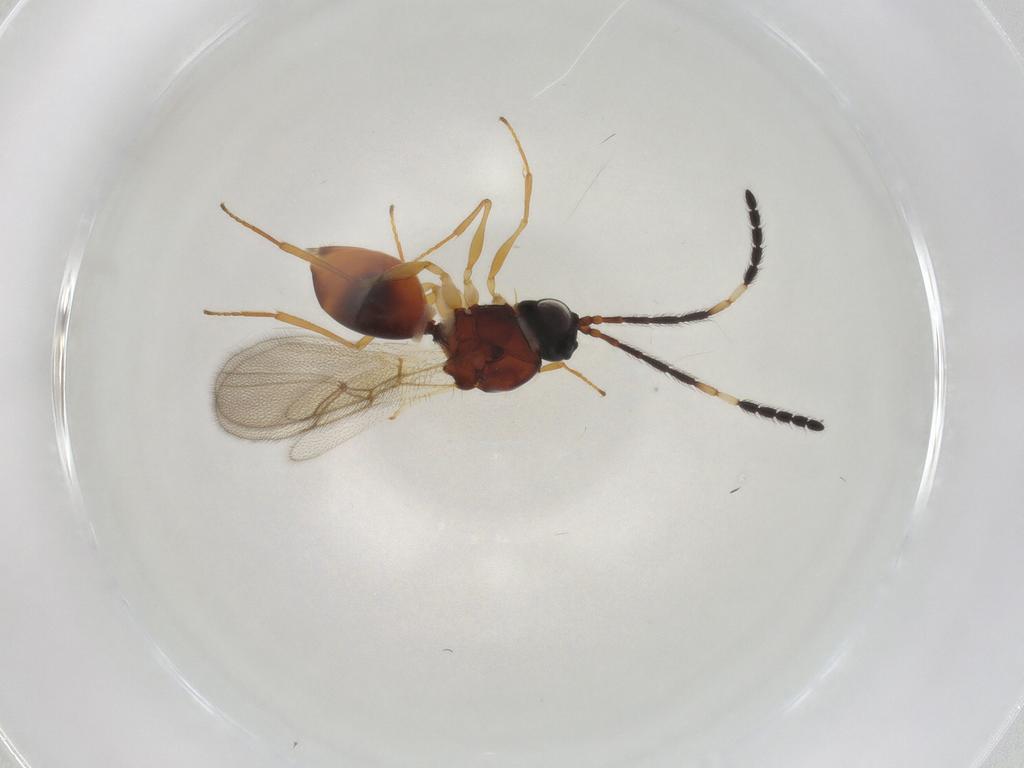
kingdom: Animalia
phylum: Arthropoda
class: Insecta
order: Hymenoptera
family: Figitidae
